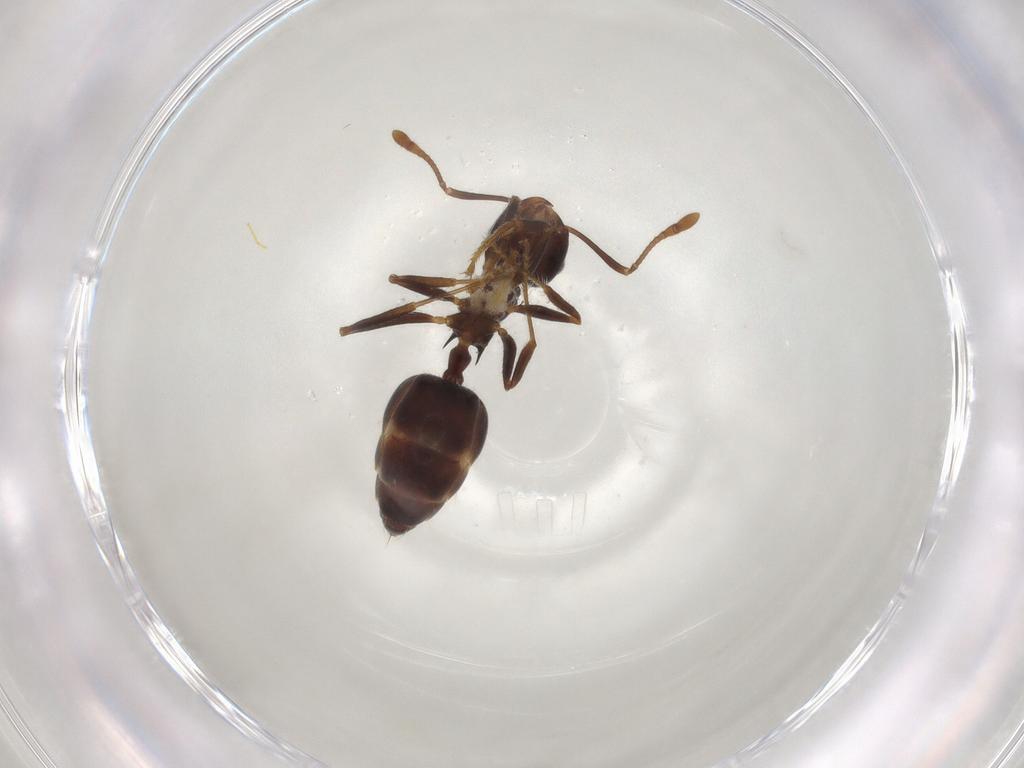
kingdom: Animalia
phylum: Arthropoda
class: Insecta
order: Hymenoptera
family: Formicidae
